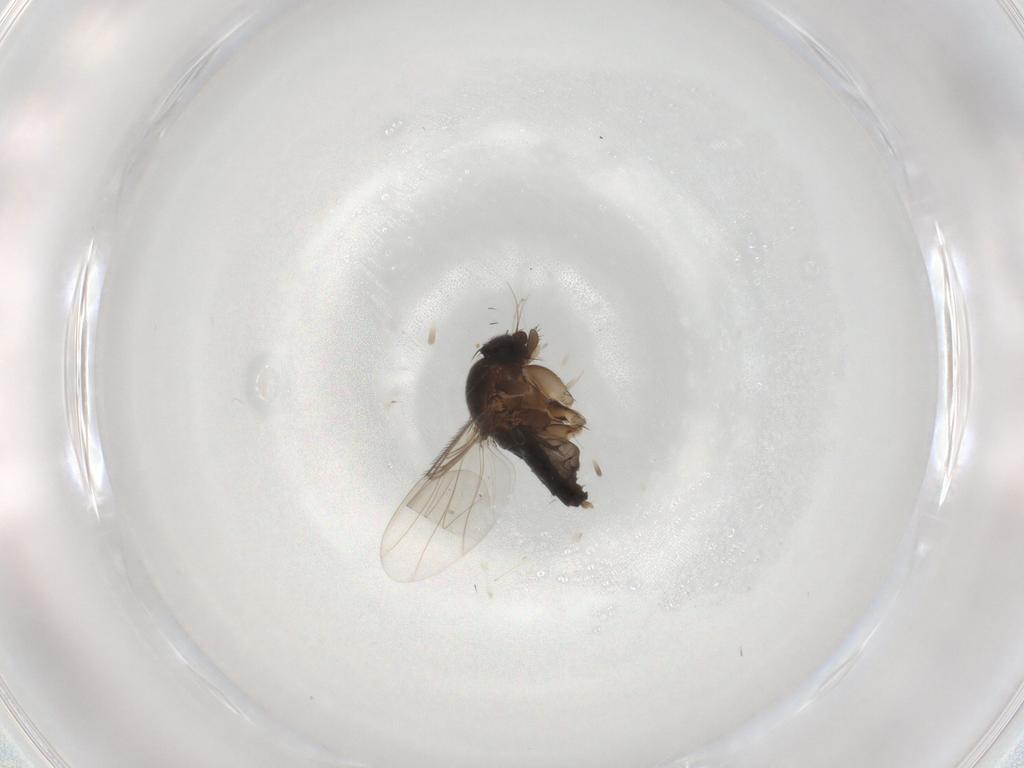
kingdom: Animalia
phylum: Arthropoda
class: Insecta
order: Diptera
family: Phoridae
